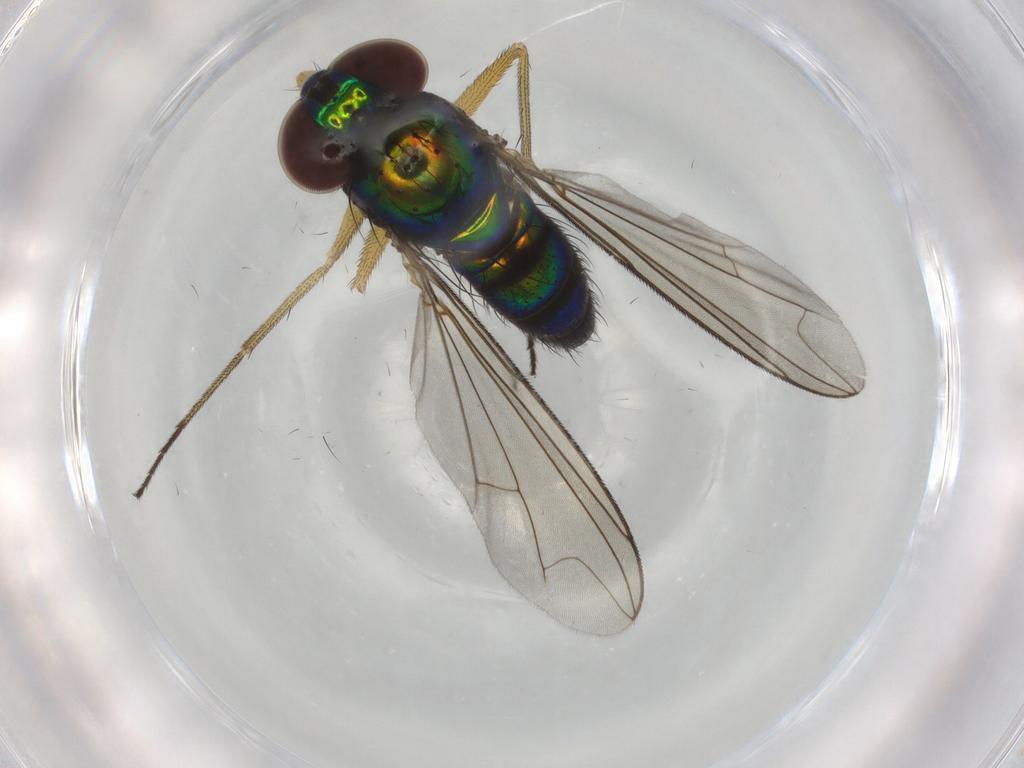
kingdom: Animalia
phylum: Arthropoda
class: Insecta
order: Diptera
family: Dolichopodidae
